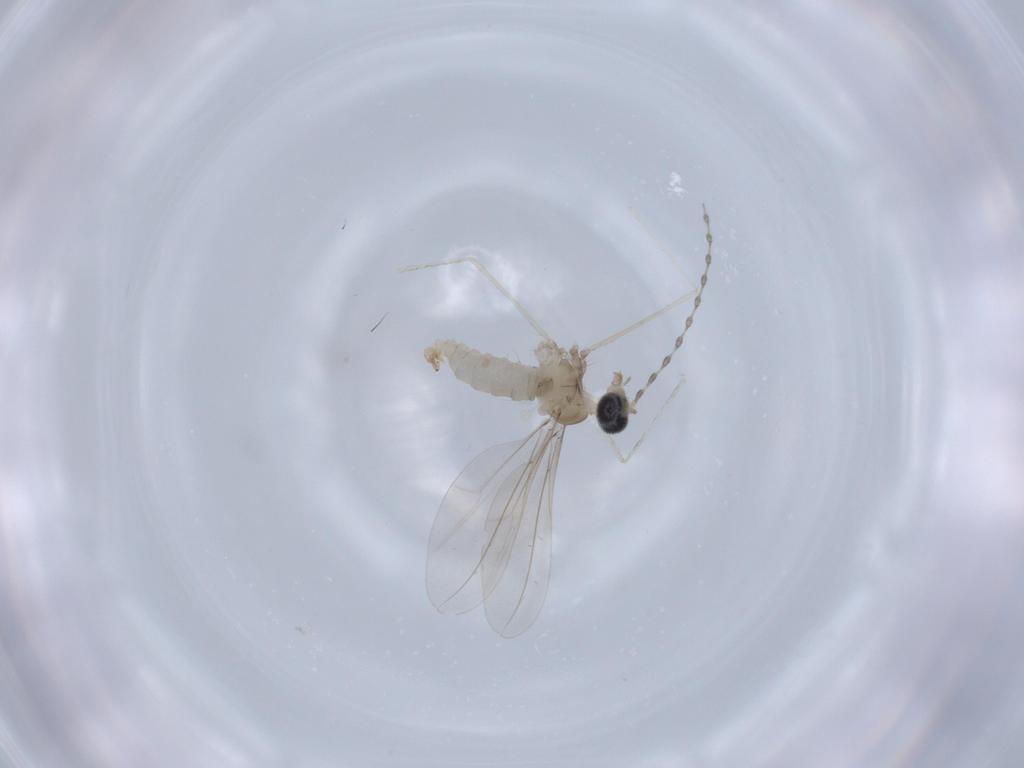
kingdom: Animalia
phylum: Arthropoda
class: Insecta
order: Diptera
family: Cecidomyiidae
